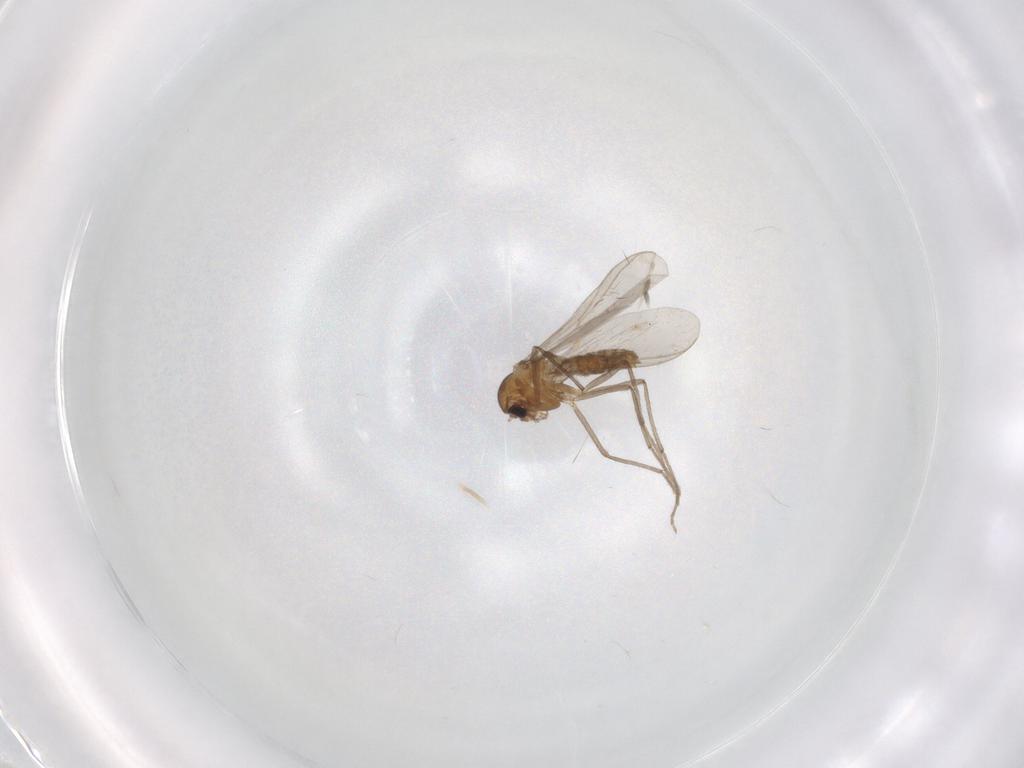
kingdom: Animalia
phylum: Arthropoda
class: Insecta
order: Diptera
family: Chironomidae
